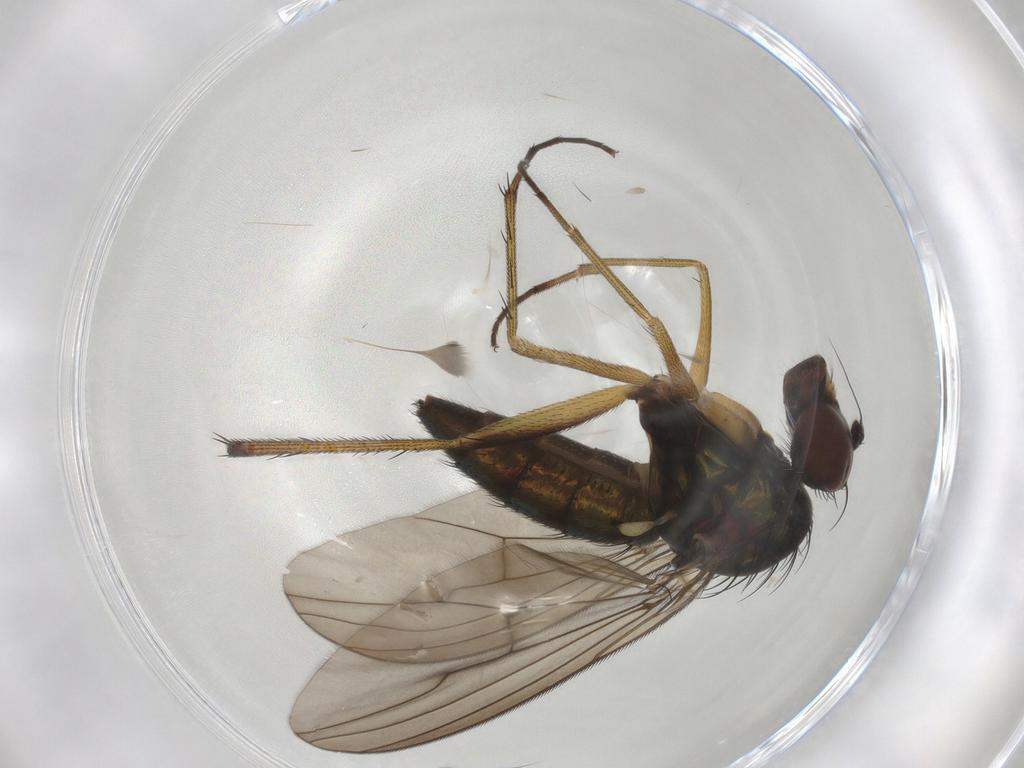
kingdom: Animalia
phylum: Arthropoda
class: Insecta
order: Diptera
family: Dolichopodidae
